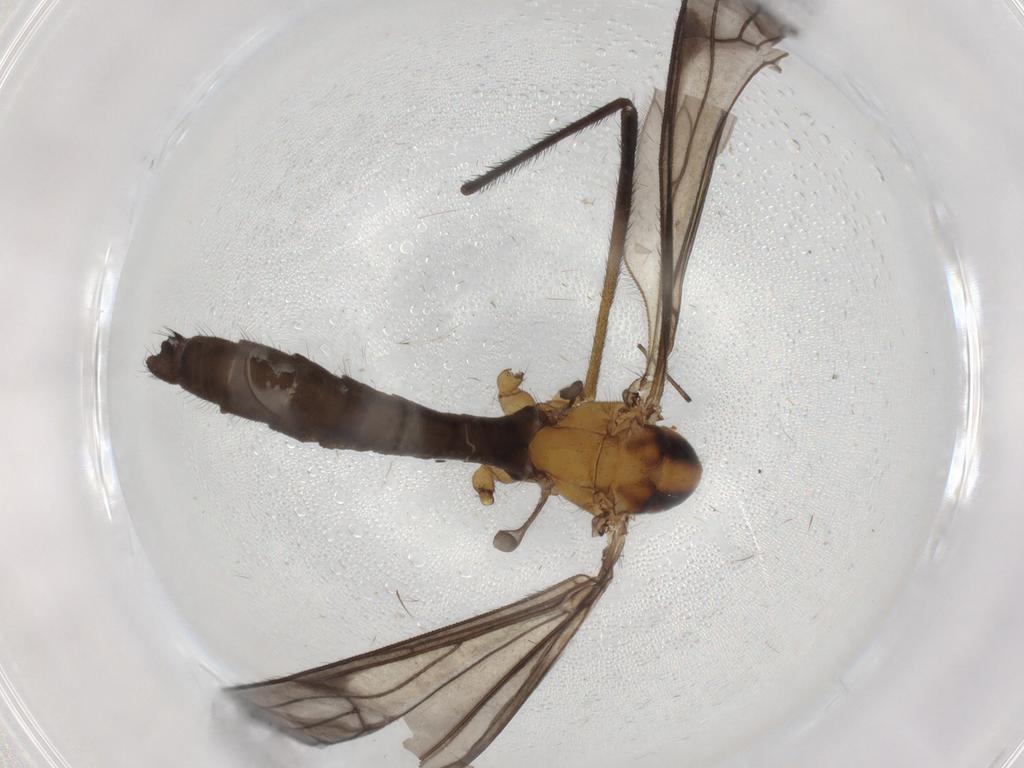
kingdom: Animalia
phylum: Arthropoda
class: Insecta
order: Diptera
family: Limoniidae
